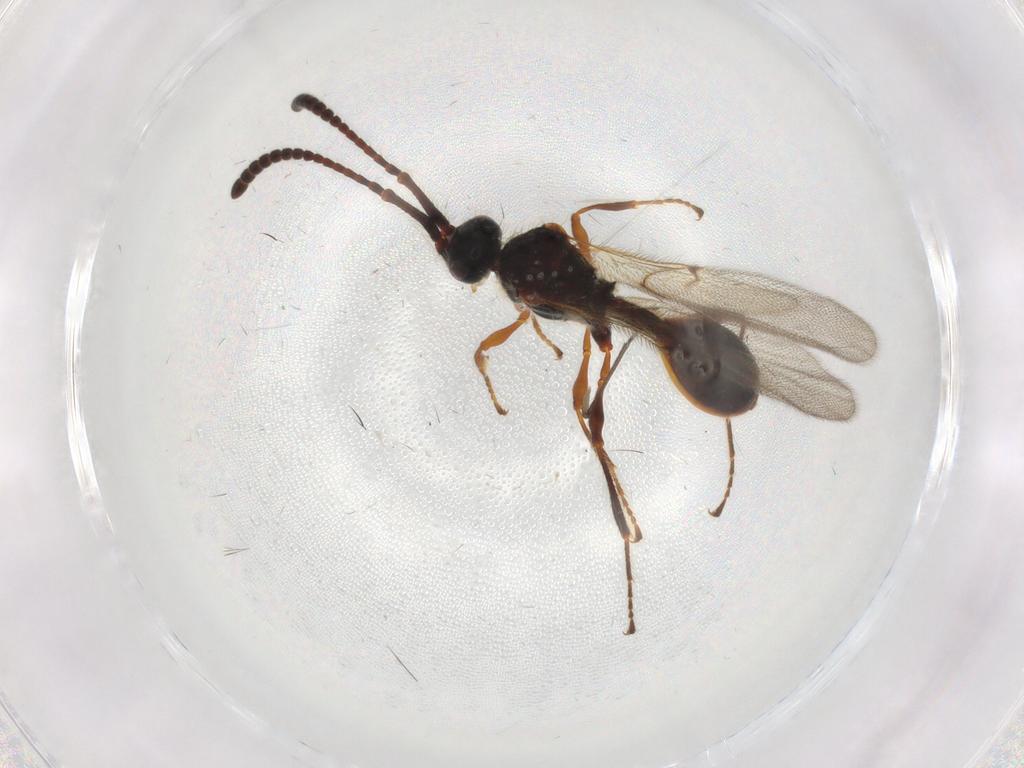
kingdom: Animalia
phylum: Arthropoda
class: Insecta
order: Hymenoptera
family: Diapriidae
